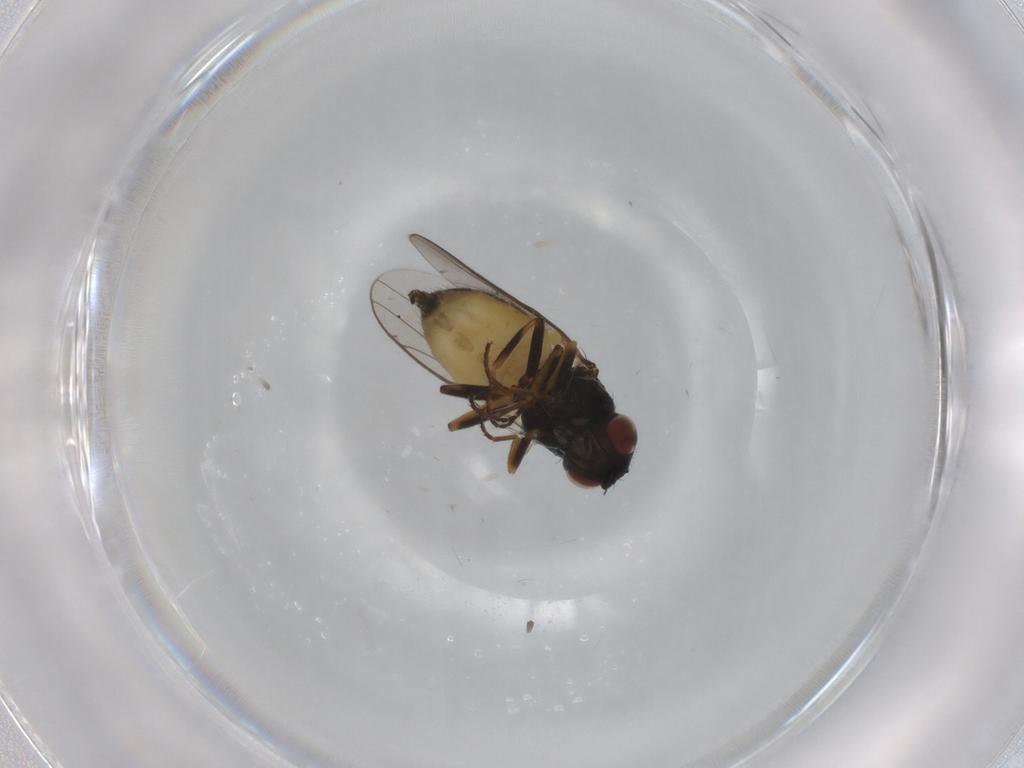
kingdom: Animalia
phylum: Arthropoda
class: Insecta
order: Diptera
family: Chloropidae
